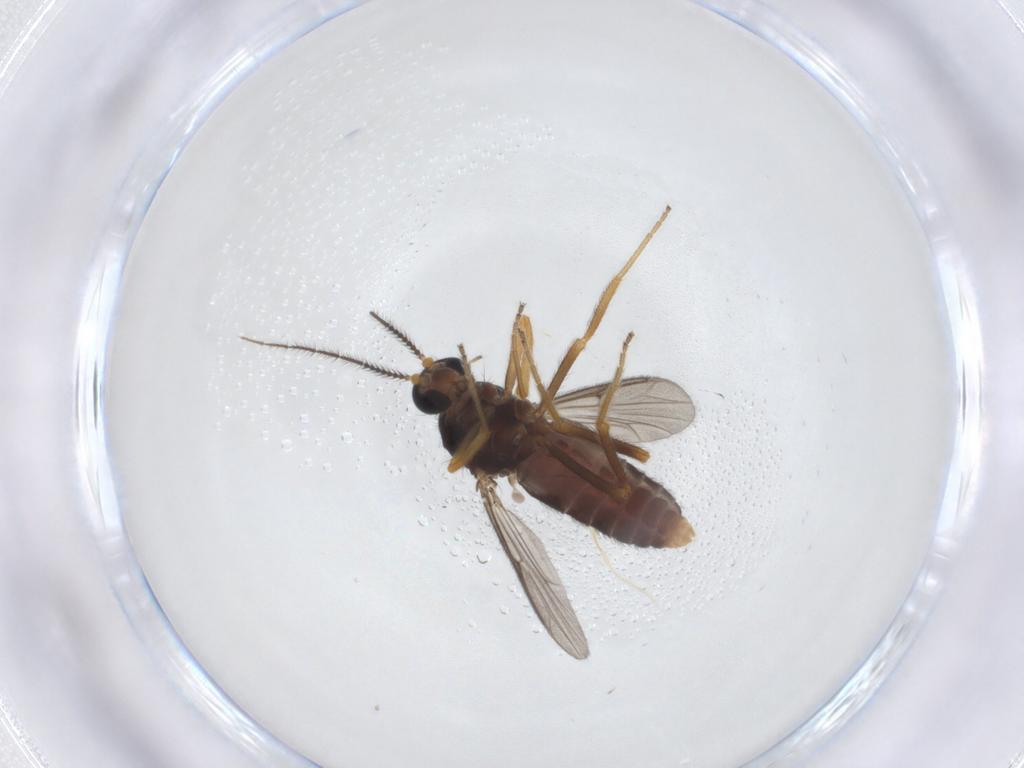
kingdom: Animalia
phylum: Arthropoda
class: Insecta
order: Diptera
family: Ceratopogonidae
